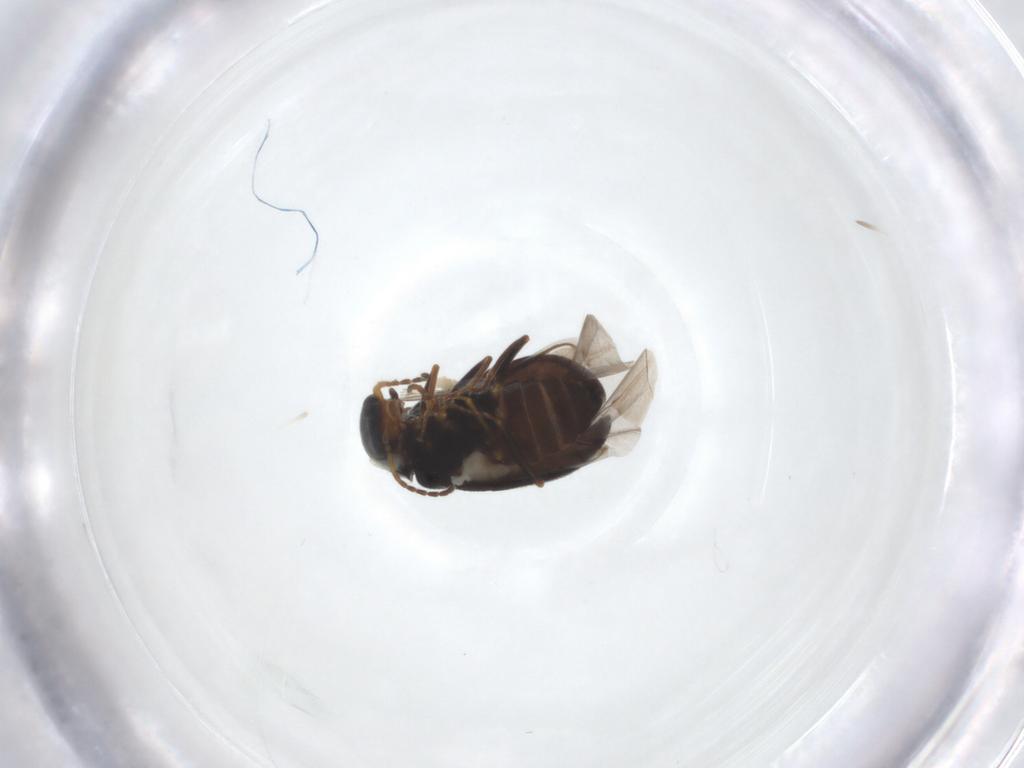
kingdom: Animalia
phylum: Arthropoda
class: Insecta
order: Coleoptera
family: Melyridae
